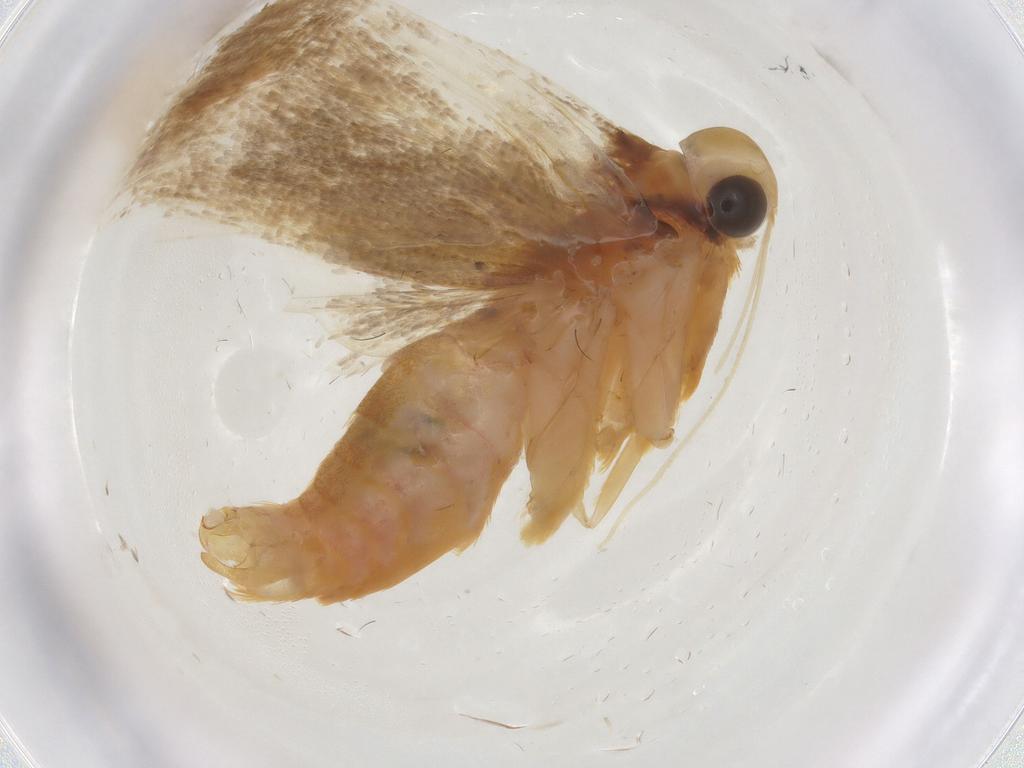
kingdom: Animalia
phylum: Arthropoda
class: Insecta
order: Lepidoptera
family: Lecithoceridae
